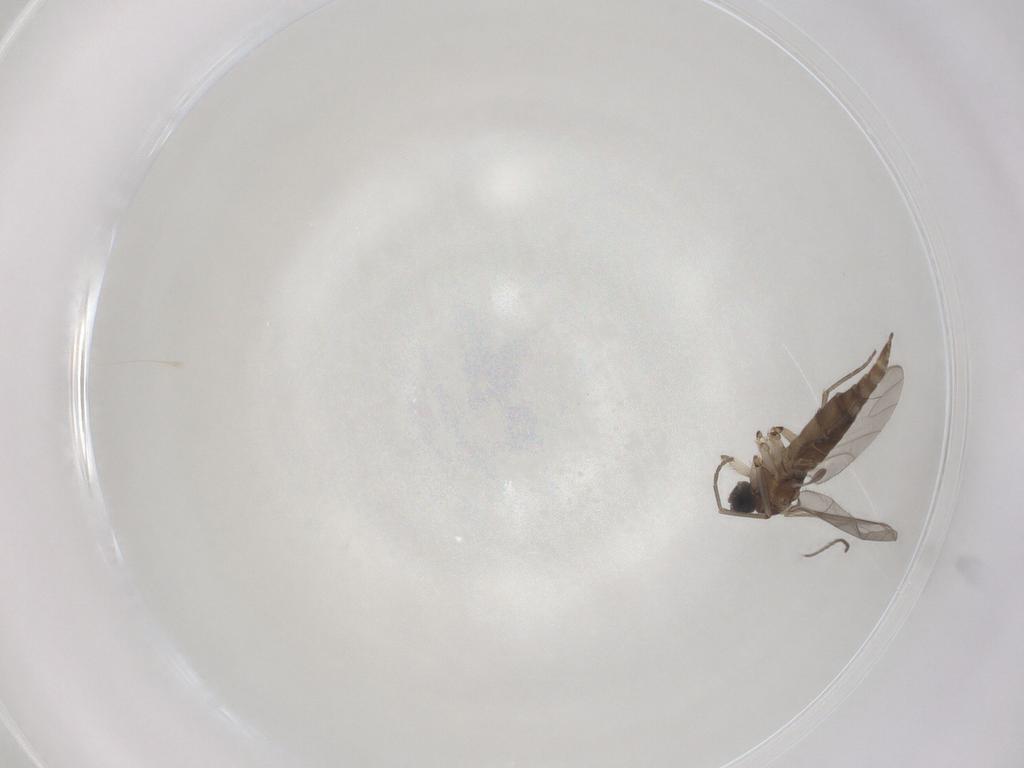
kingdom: Animalia
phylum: Arthropoda
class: Insecta
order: Diptera
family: Sciaridae
